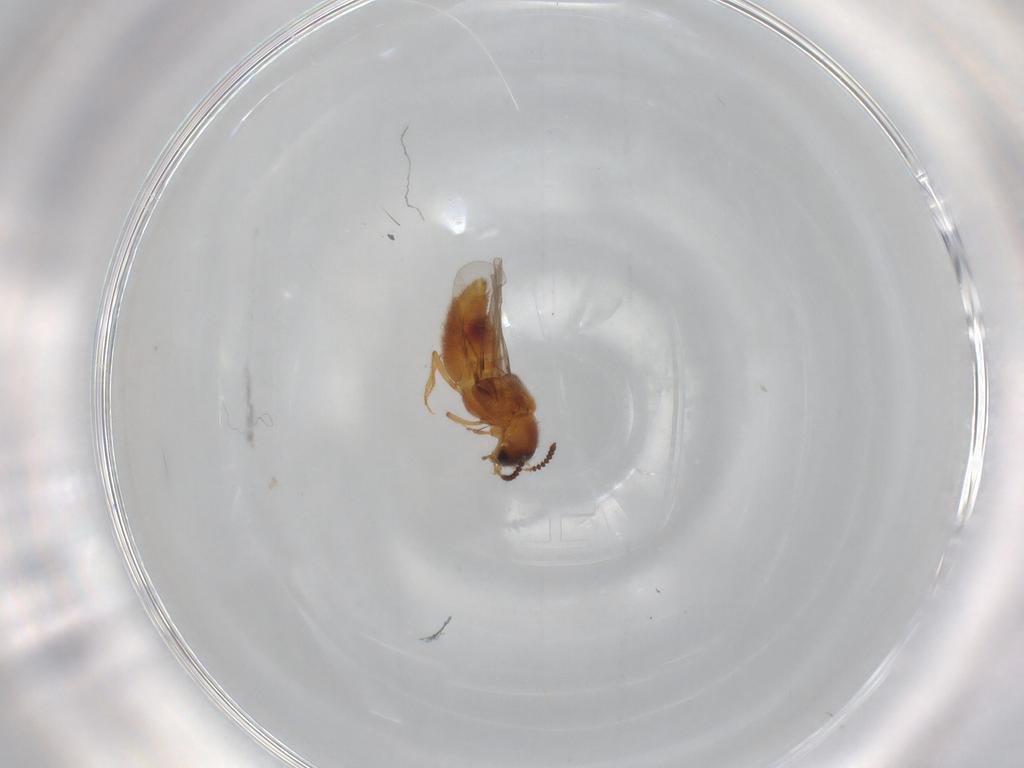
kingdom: Animalia
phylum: Arthropoda
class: Insecta
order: Coleoptera
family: Staphylinidae
